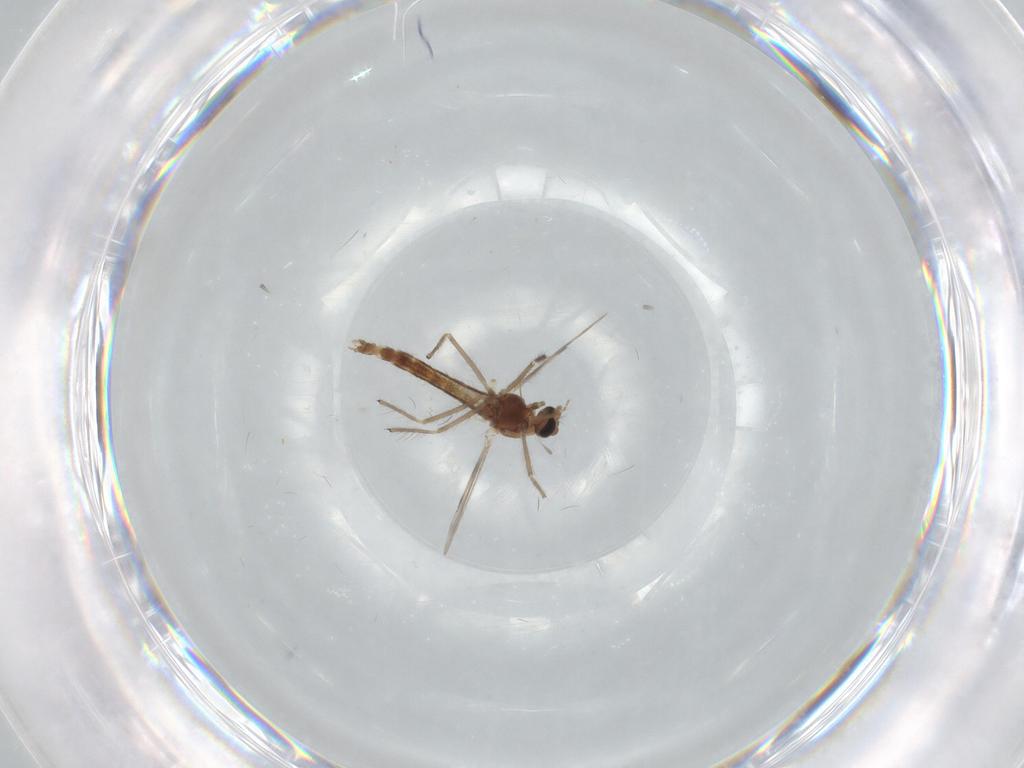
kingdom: Animalia
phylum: Arthropoda
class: Insecta
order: Diptera
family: Chironomidae
